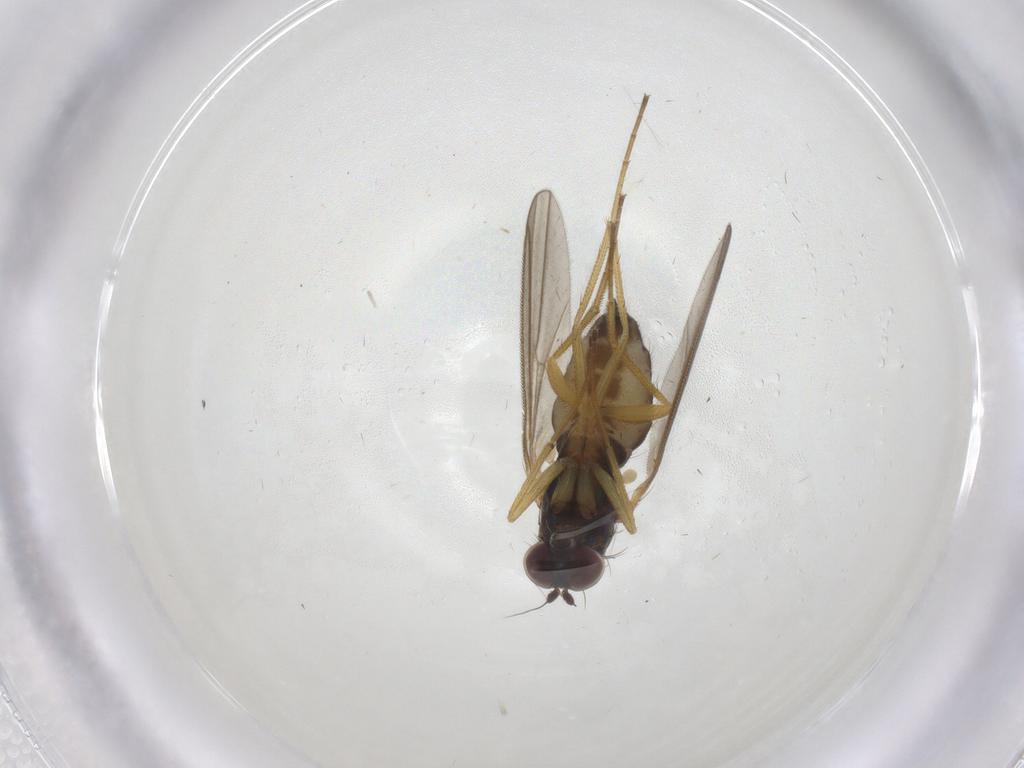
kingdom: Animalia
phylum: Arthropoda
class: Insecta
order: Diptera
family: Dolichopodidae
